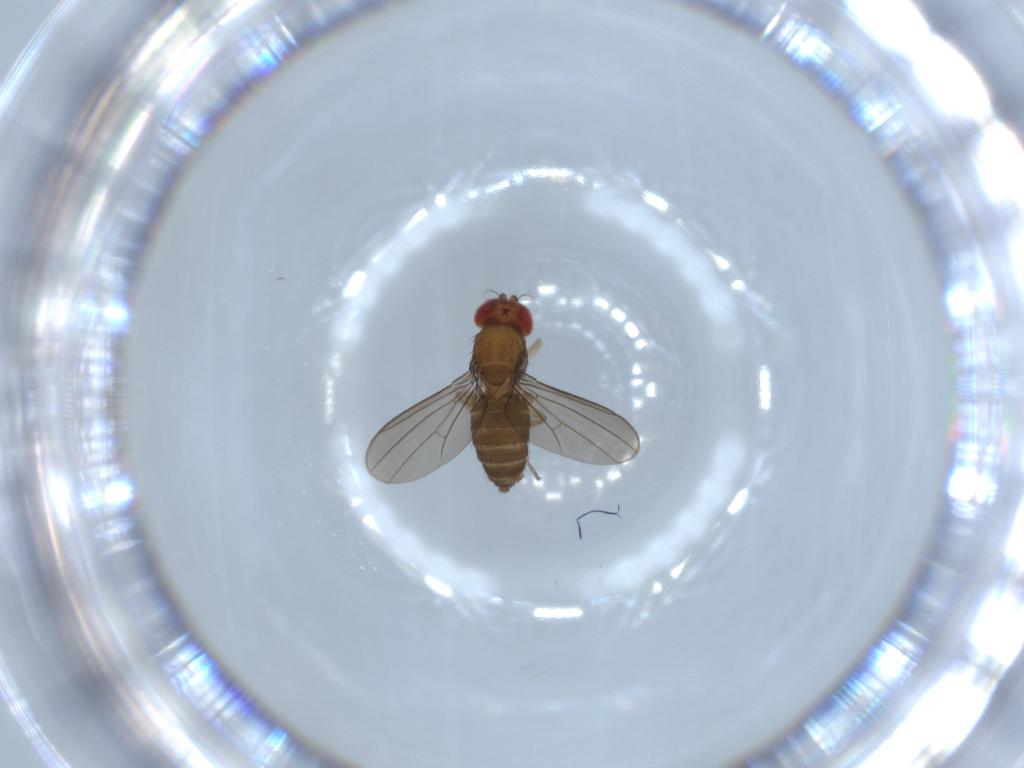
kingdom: Animalia
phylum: Arthropoda
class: Insecta
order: Diptera
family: Drosophilidae
